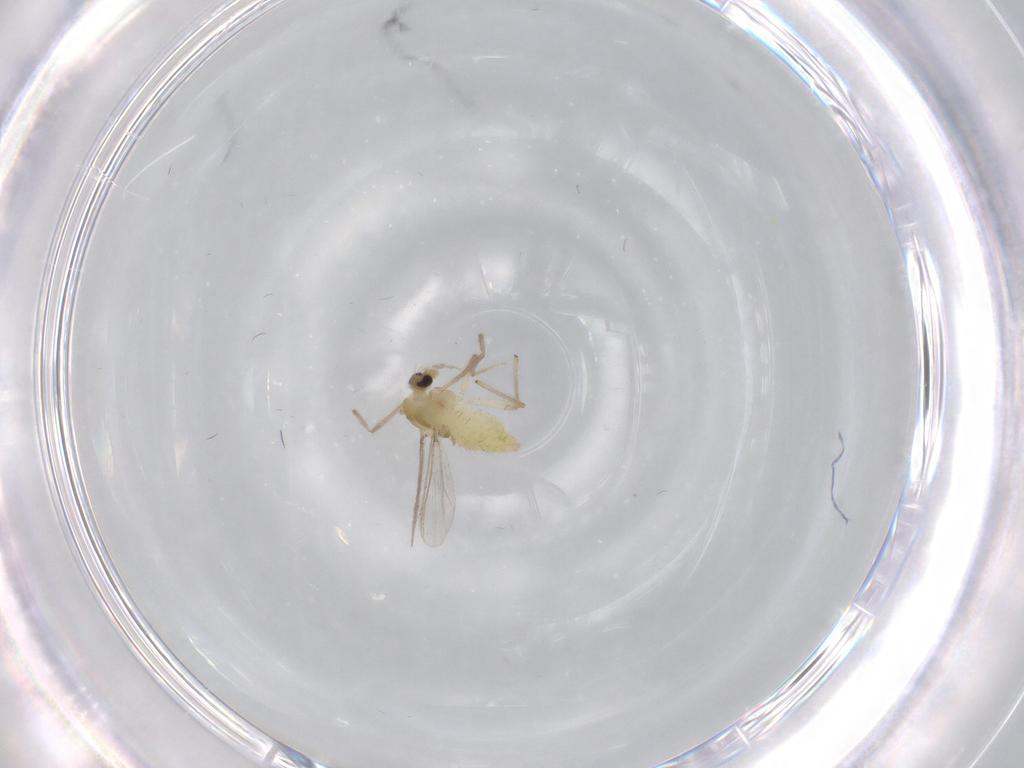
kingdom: Animalia
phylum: Arthropoda
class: Insecta
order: Diptera
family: Chironomidae
